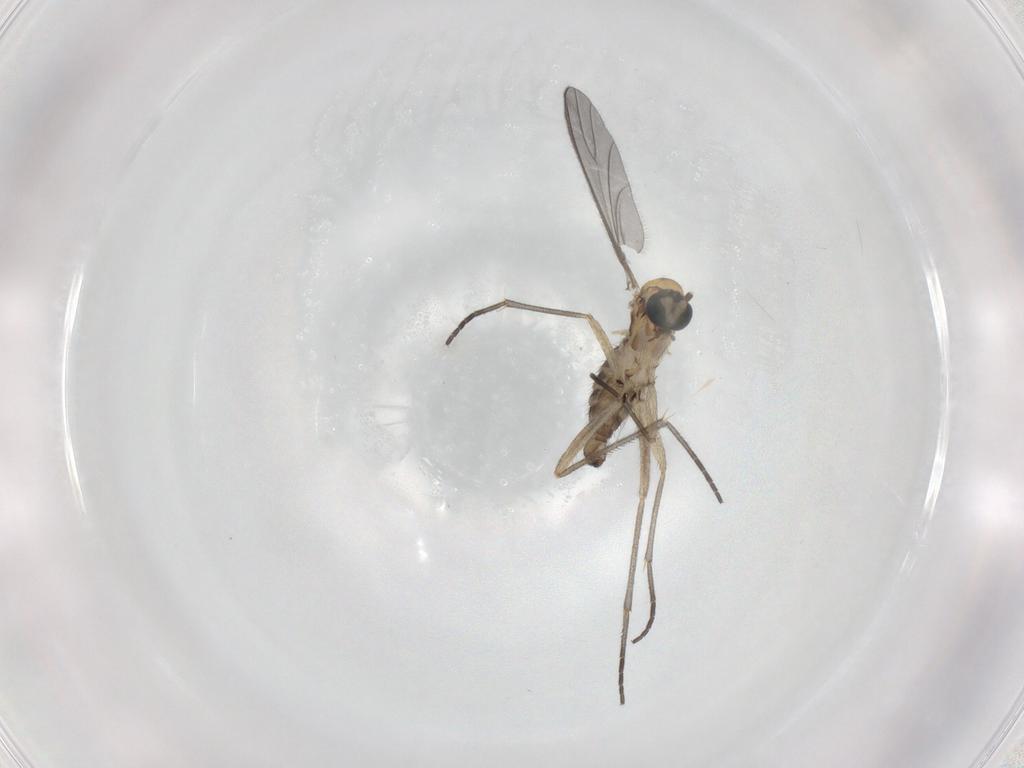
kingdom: Animalia
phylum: Arthropoda
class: Insecta
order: Diptera
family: Sciaridae
